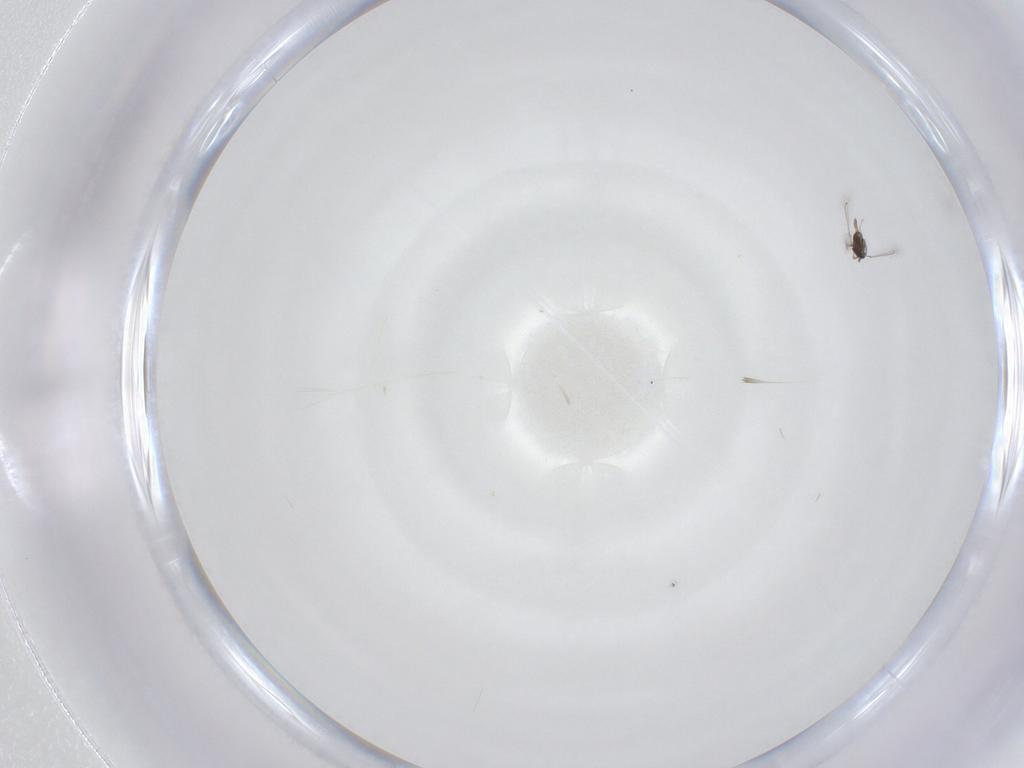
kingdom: Animalia
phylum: Arthropoda
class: Insecta
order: Hymenoptera
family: Mymaridae
